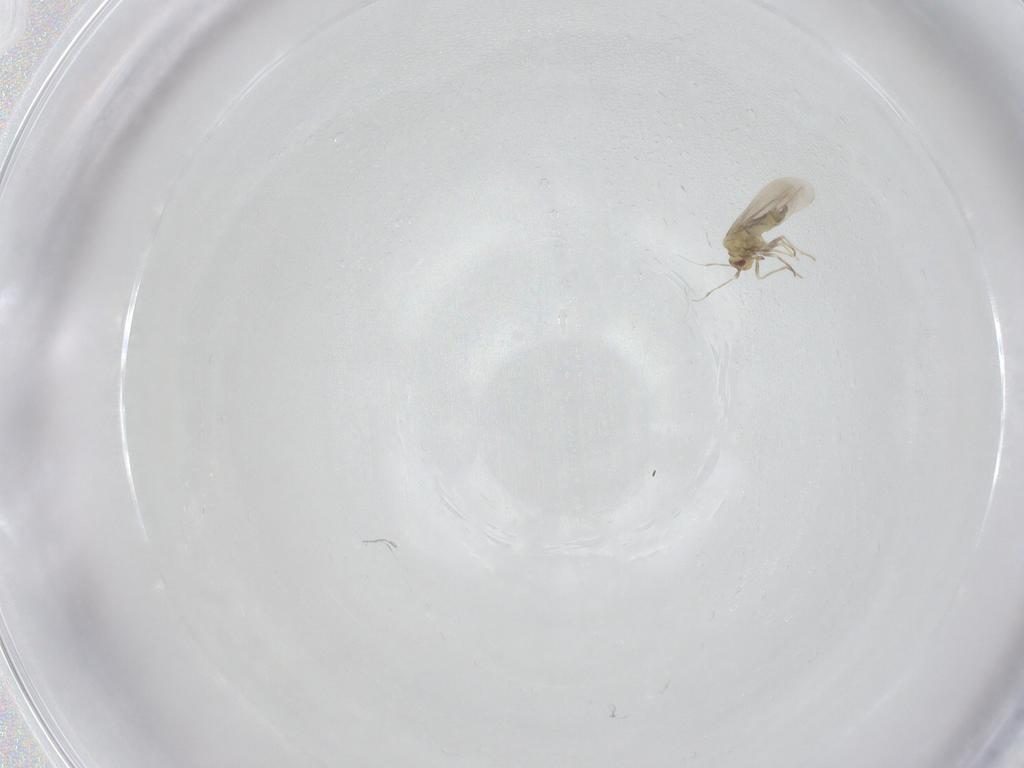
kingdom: Animalia
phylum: Arthropoda
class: Insecta
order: Hemiptera
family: Aleyrodidae
